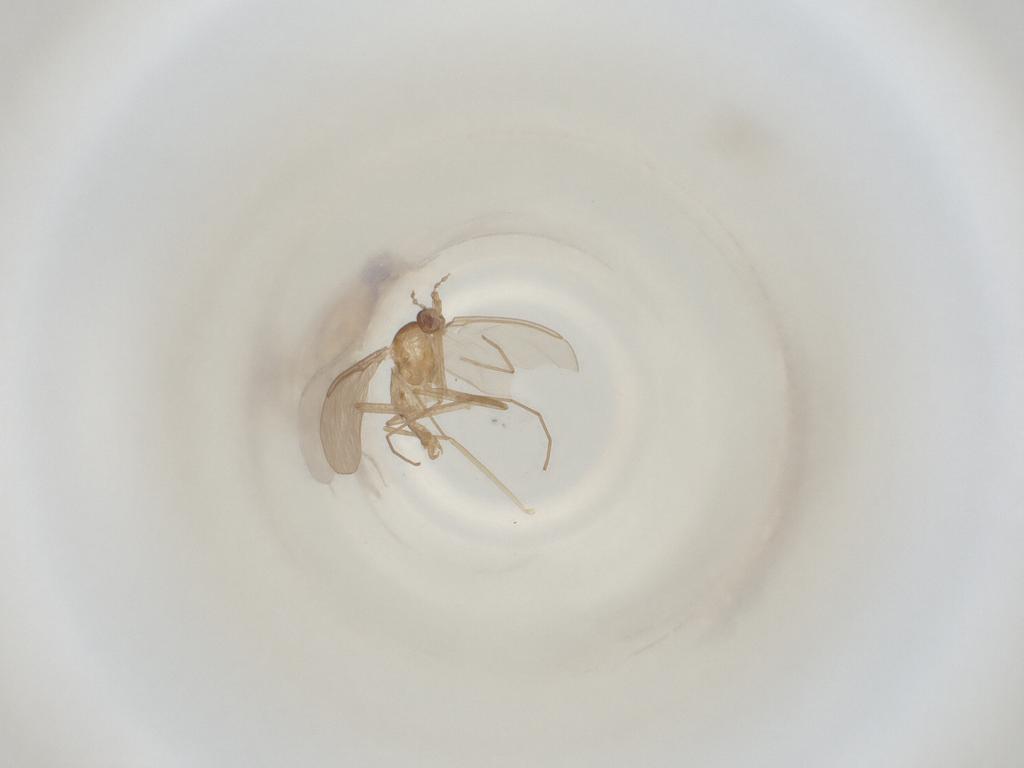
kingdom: Animalia
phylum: Arthropoda
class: Insecta
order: Diptera
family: Cecidomyiidae
